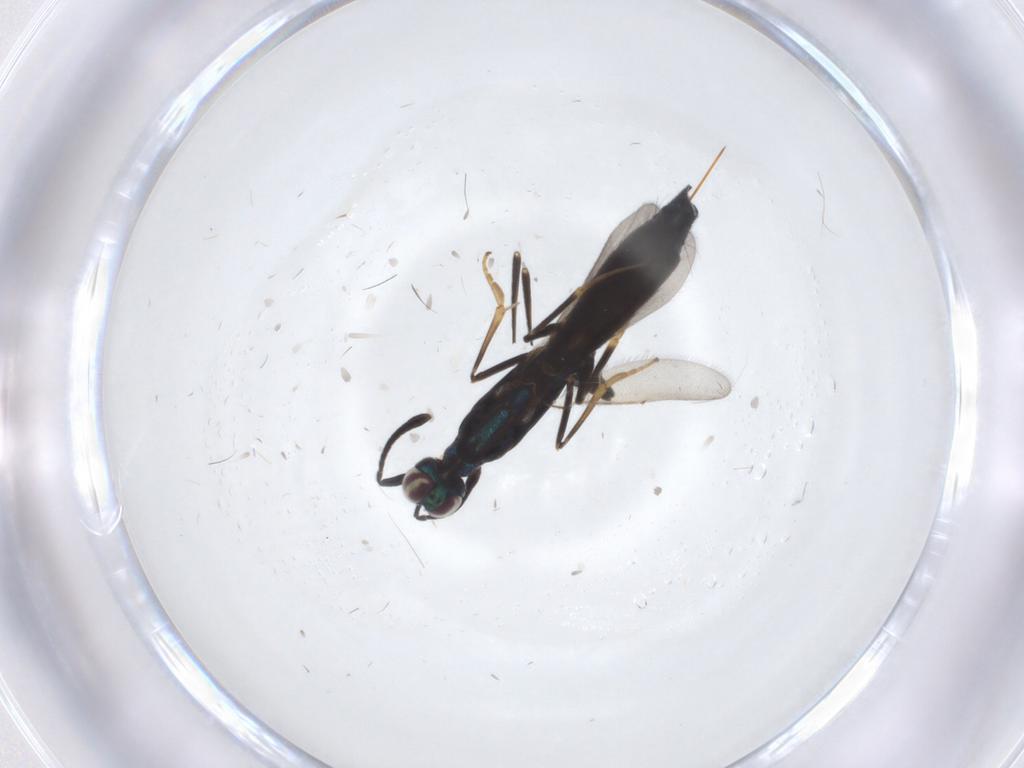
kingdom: Animalia
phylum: Arthropoda
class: Insecta
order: Hymenoptera
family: Eupelmidae
